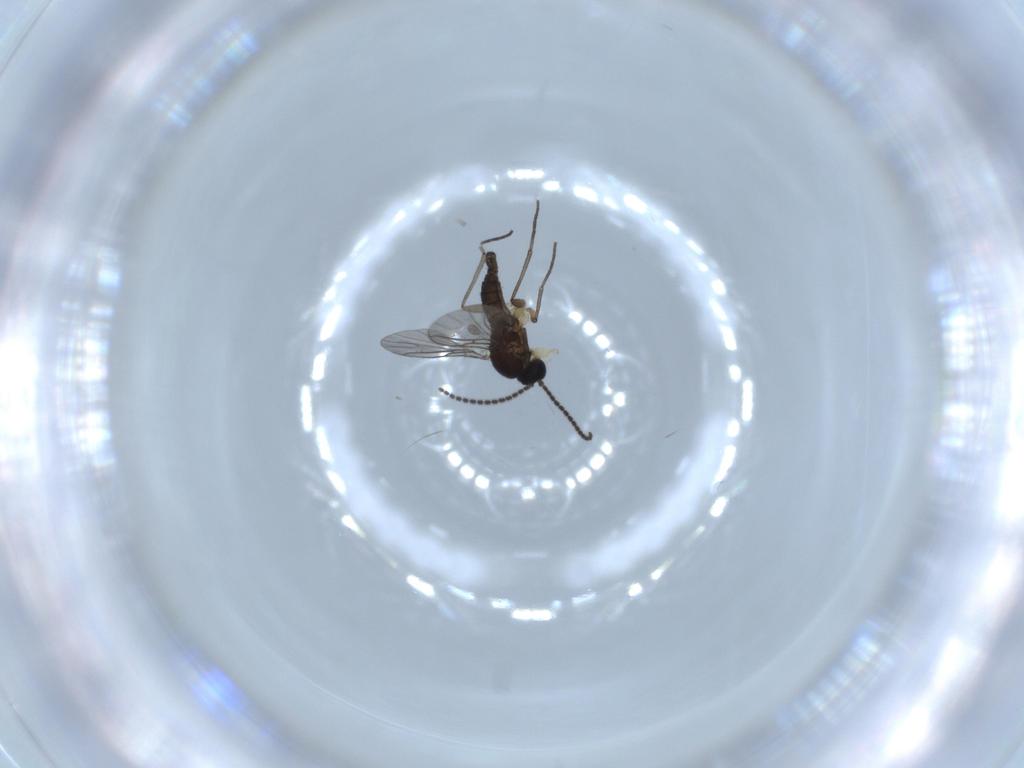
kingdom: Animalia
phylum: Arthropoda
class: Insecta
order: Diptera
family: Sciaridae
